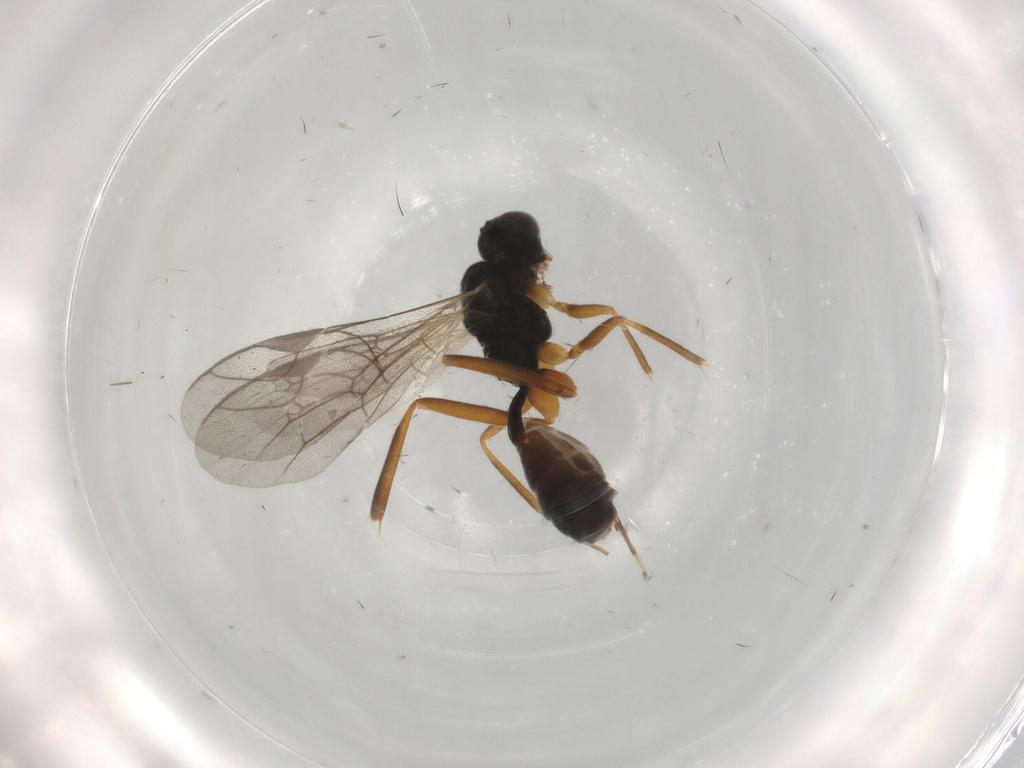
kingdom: Animalia
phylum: Arthropoda
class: Insecta
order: Hymenoptera
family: Ichneumonidae
